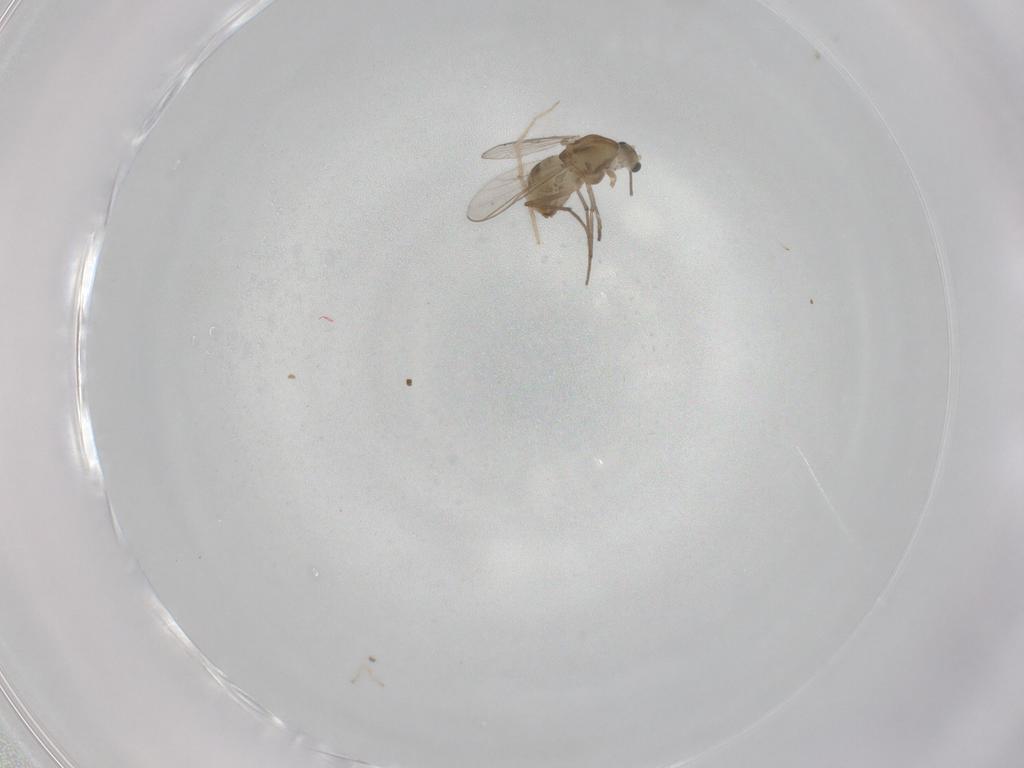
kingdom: Animalia
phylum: Arthropoda
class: Insecta
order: Diptera
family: Chironomidae
